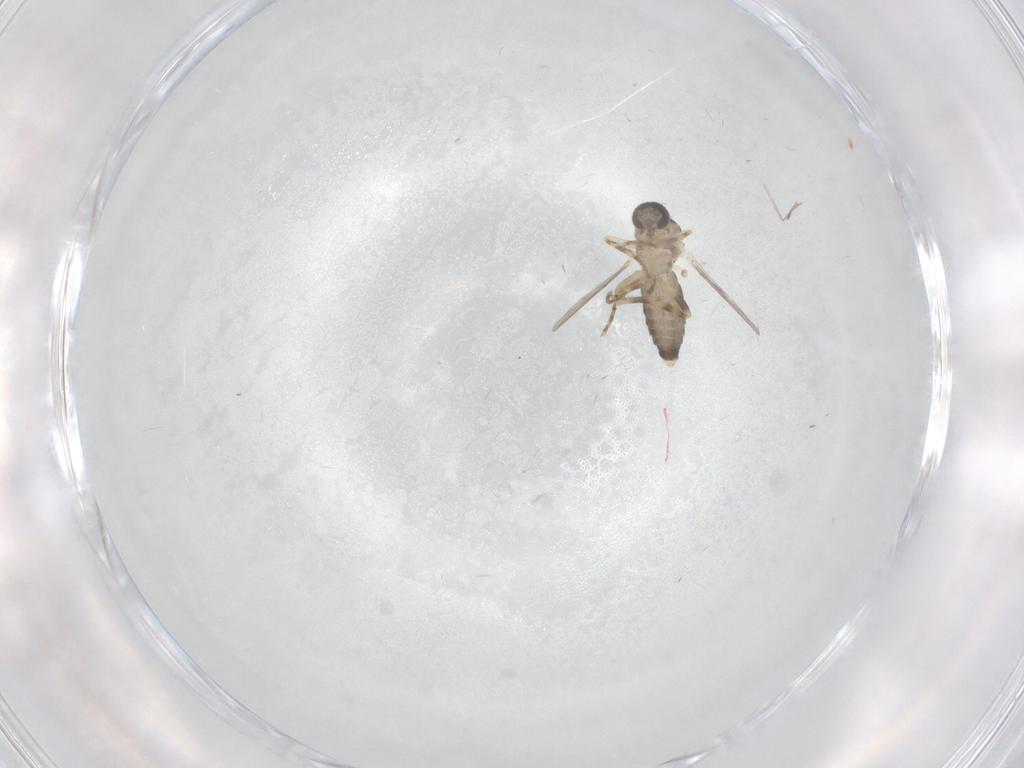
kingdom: Animalia
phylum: Arthropoda
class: Insecta
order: Diptera
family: Ceratopogonidae
